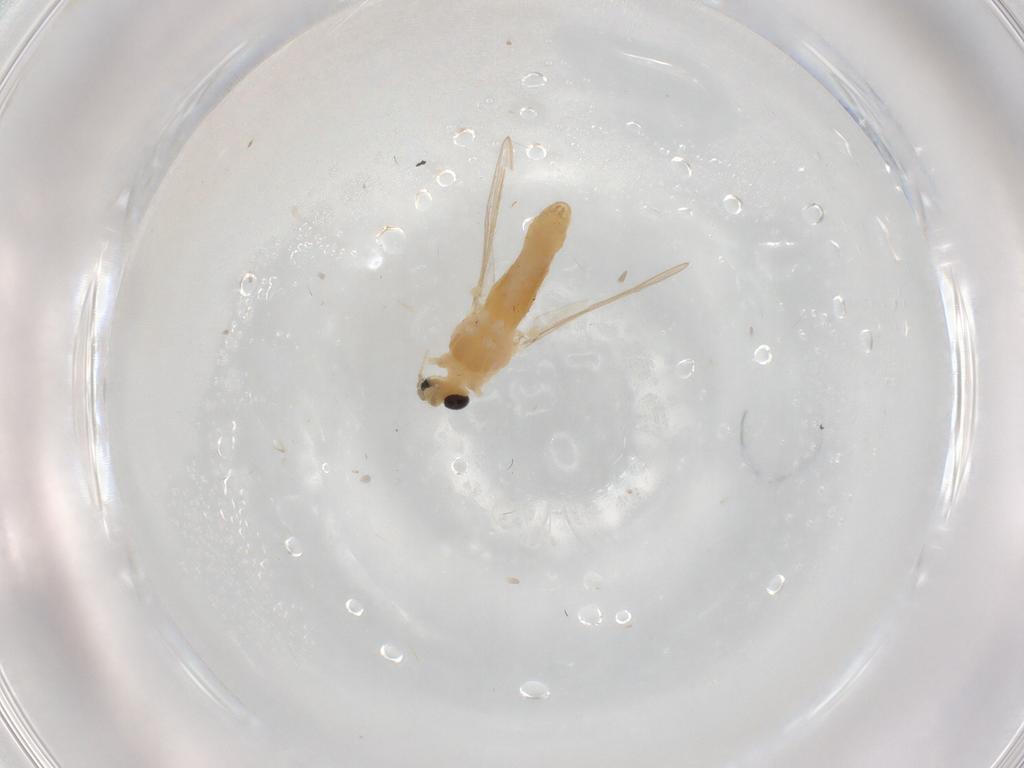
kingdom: Animalia
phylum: Arthropoda
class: Insecta
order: Diptera
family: Chironomidae
